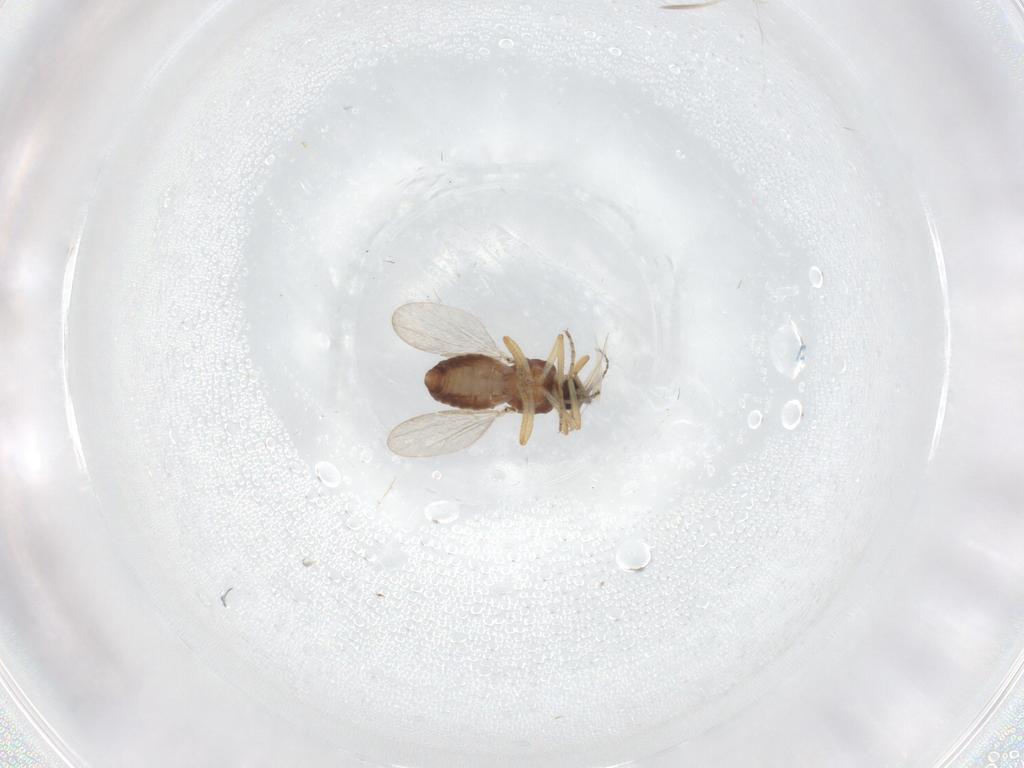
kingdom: Animalia
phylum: Arthropoda
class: Insecta
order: Diptera
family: Ceratopogonidae
